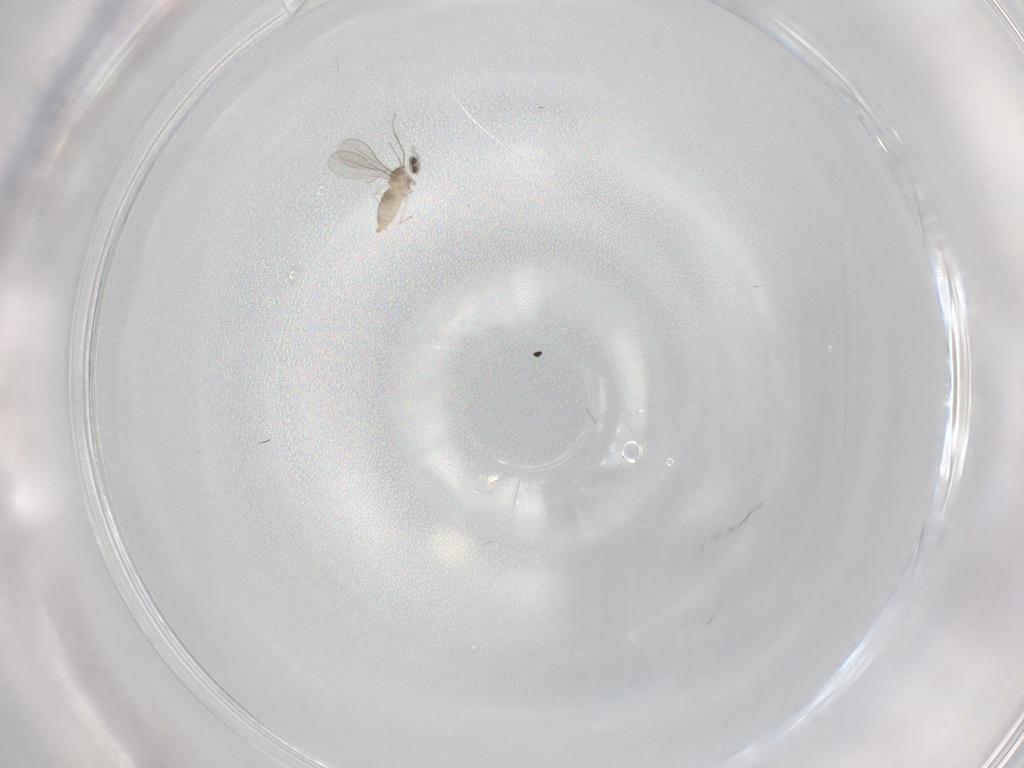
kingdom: Animalia
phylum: Arthropoda
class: Insecta
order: Diptera
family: Cecidomyiidae
